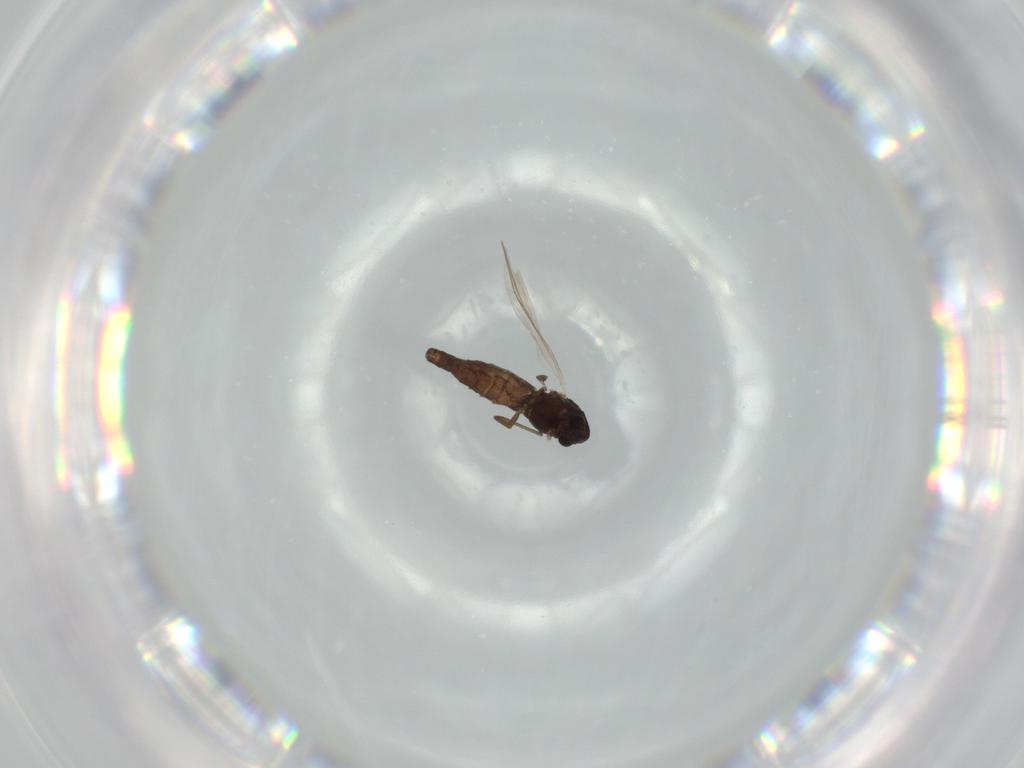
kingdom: Animalia
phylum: Arthropoda
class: Insecta
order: Diptera
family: Chironomidae
